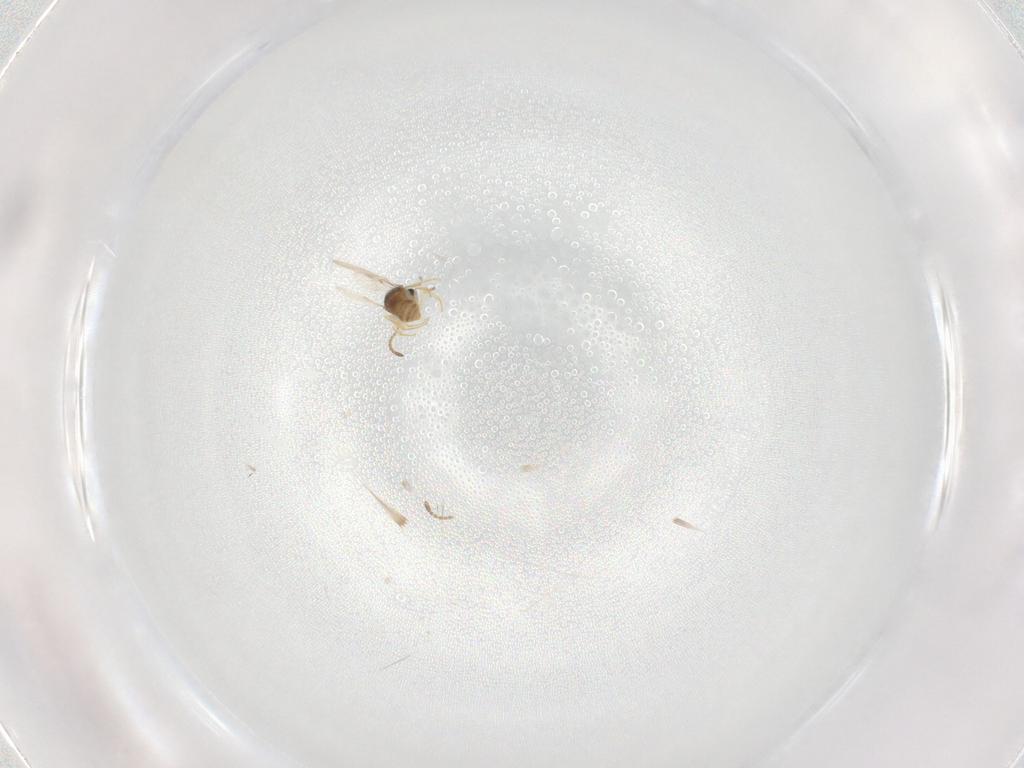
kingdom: Animalia
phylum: Arthropoda
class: Insecta
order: Hymenoptera
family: Scelionidae
